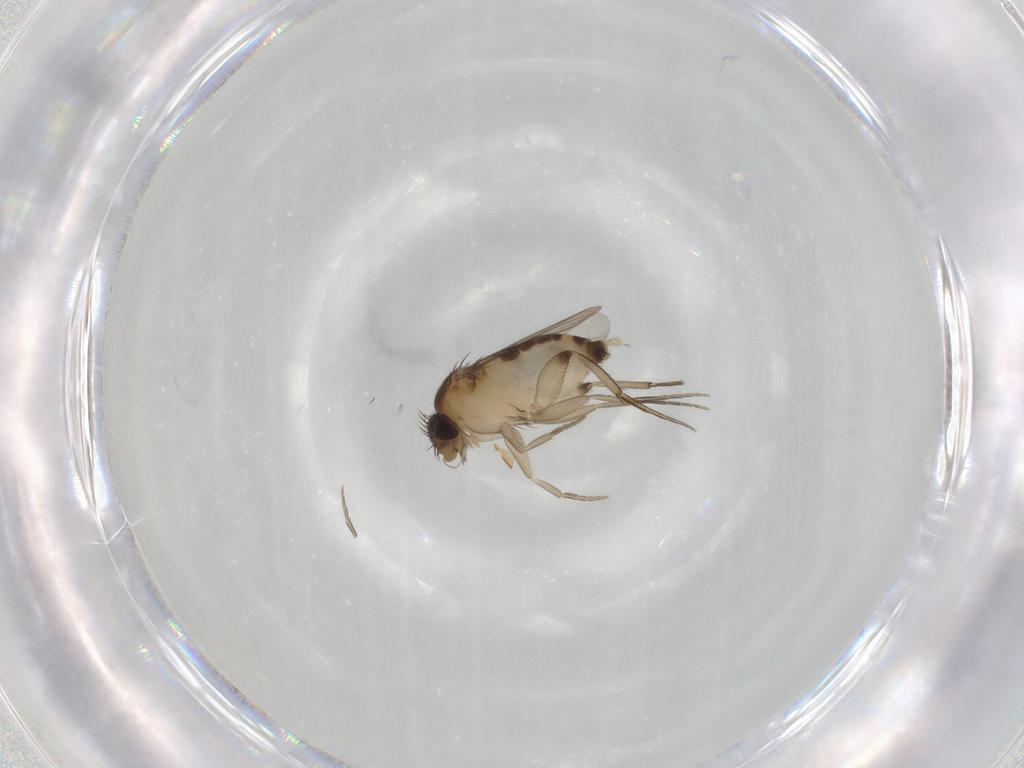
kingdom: Animalia
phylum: Arthropoda
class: Insecta
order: Diptera
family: Phoridae
